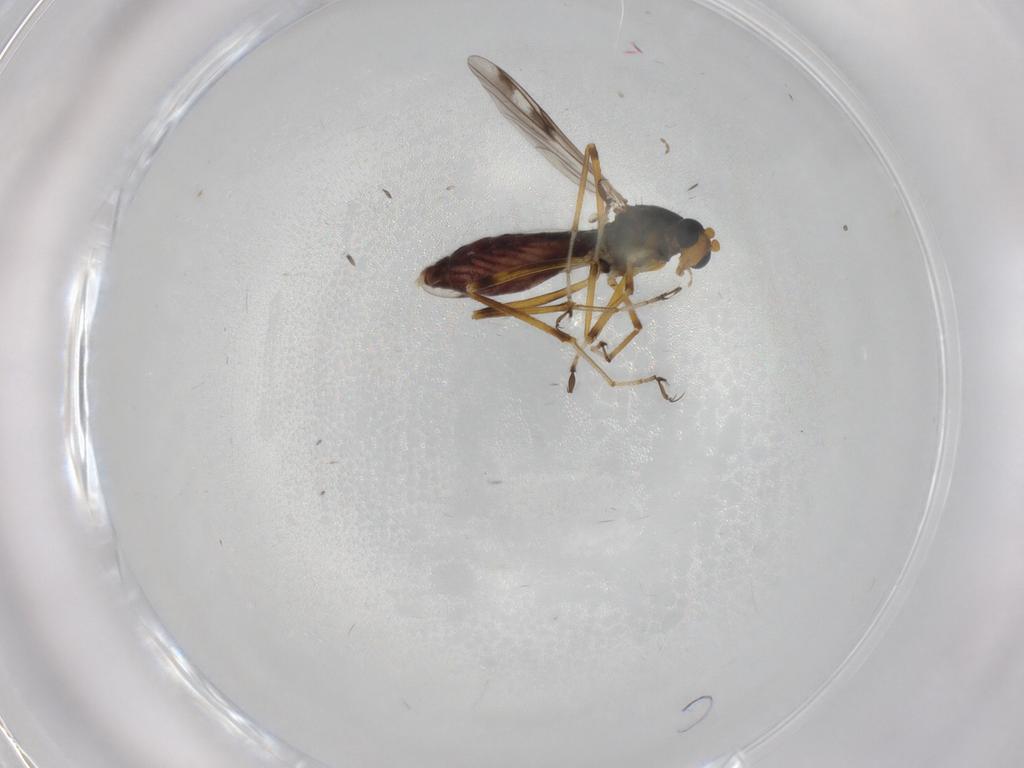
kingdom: Animalia
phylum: Arthropoda
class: Insecta
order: Diptera
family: Ceratopogonidae
